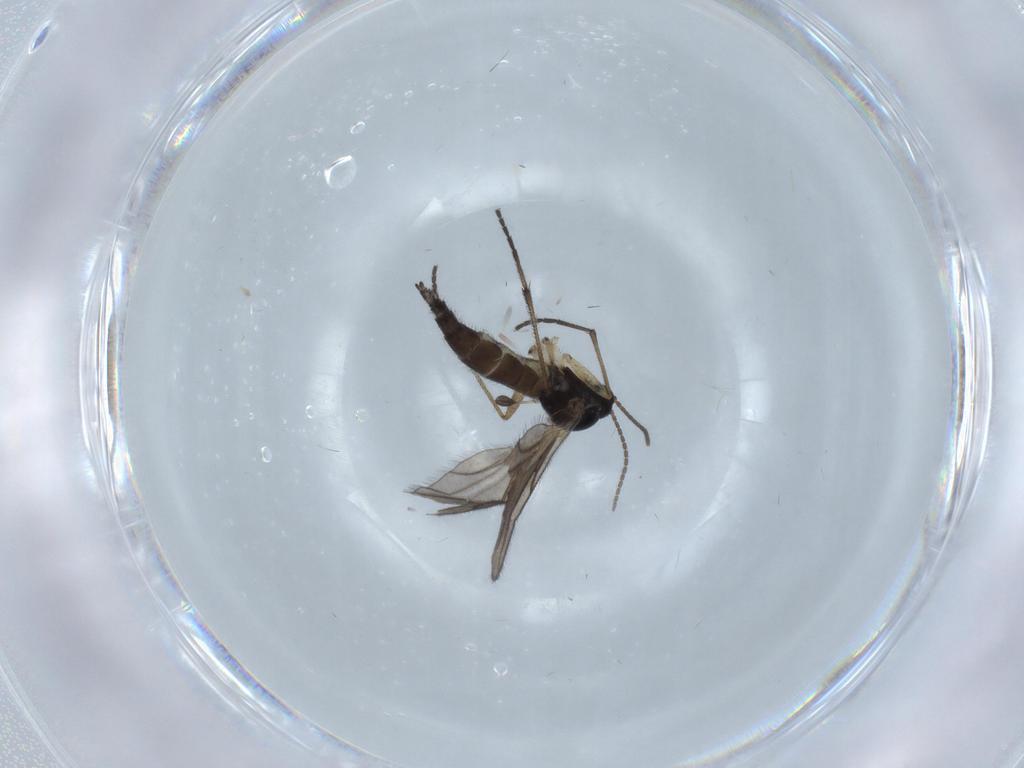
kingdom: Animalia
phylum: Arthropoda
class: Insecta
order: Diptera
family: Sciaridae
